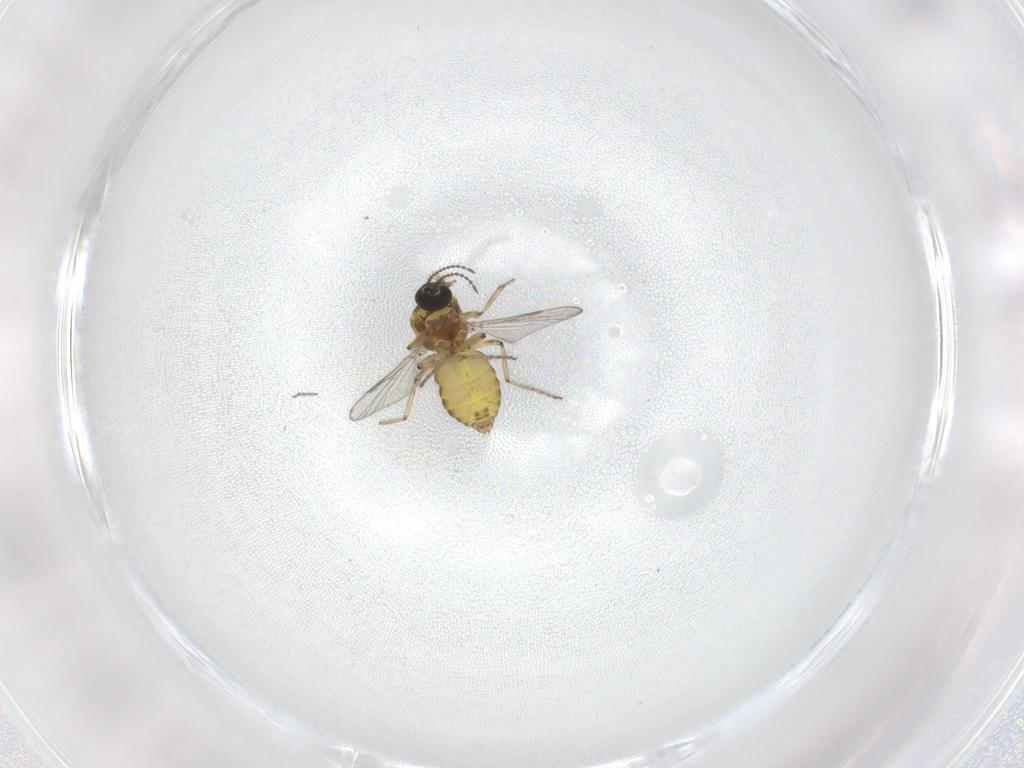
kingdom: Animalia
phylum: Arthropoda
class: Insecta
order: Diptera
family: Ceratopogonidae
